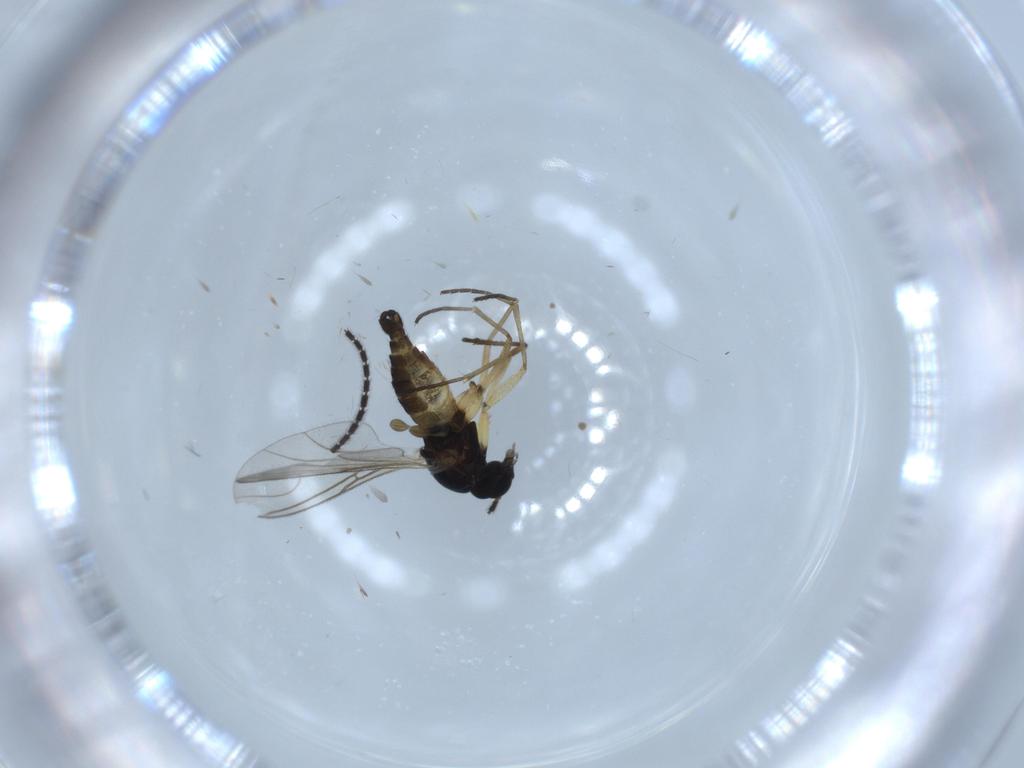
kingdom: Animalia
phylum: Arthropoda
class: Insecta
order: Diptera
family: Sciaridae
